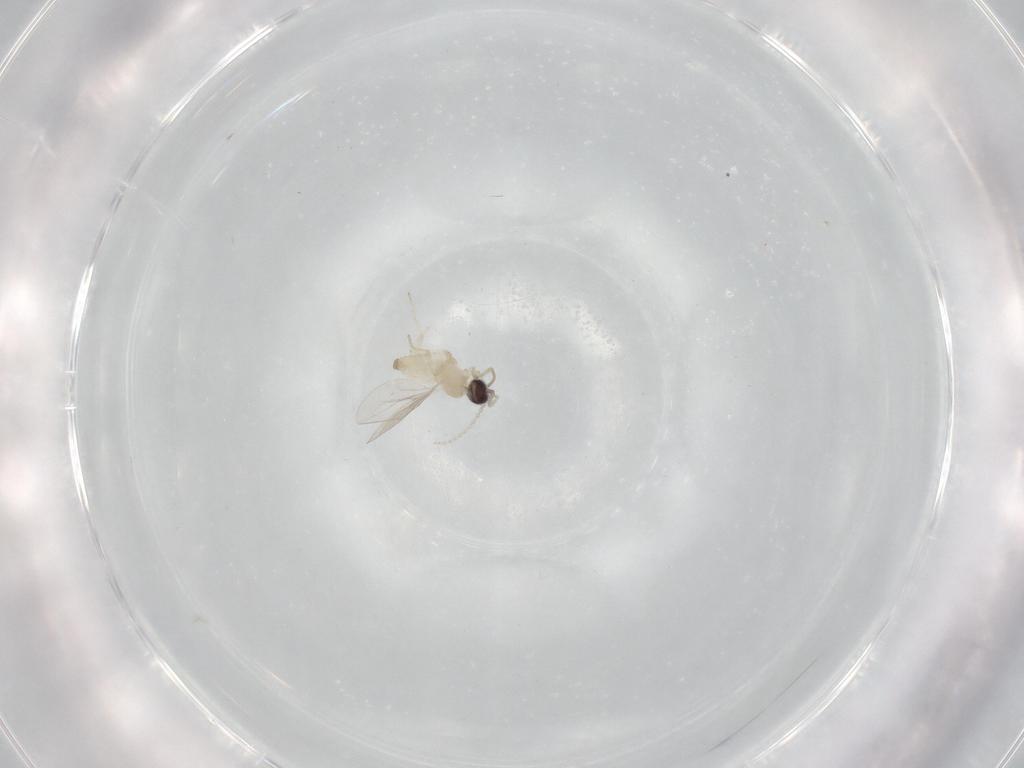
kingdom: Animalia
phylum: Arthropoda
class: Insecta
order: Diptera
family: Cecidomyiidae
